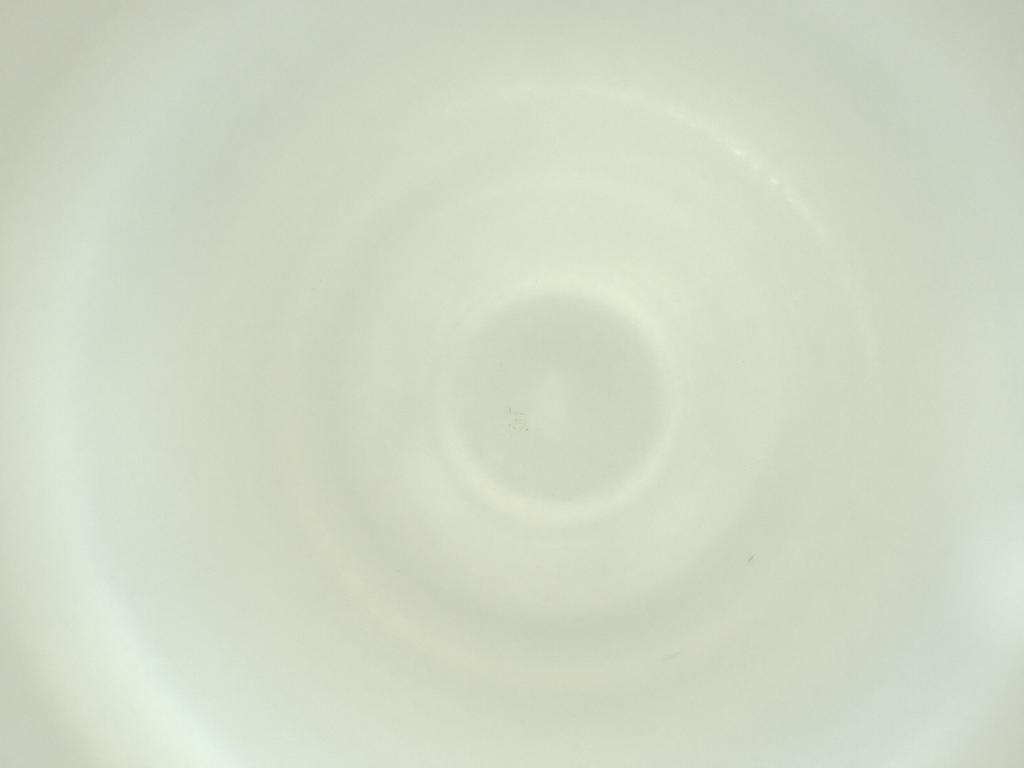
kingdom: Animalia
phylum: Arthropoda
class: Insecta
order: Diptera
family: Cecidomyiidae
